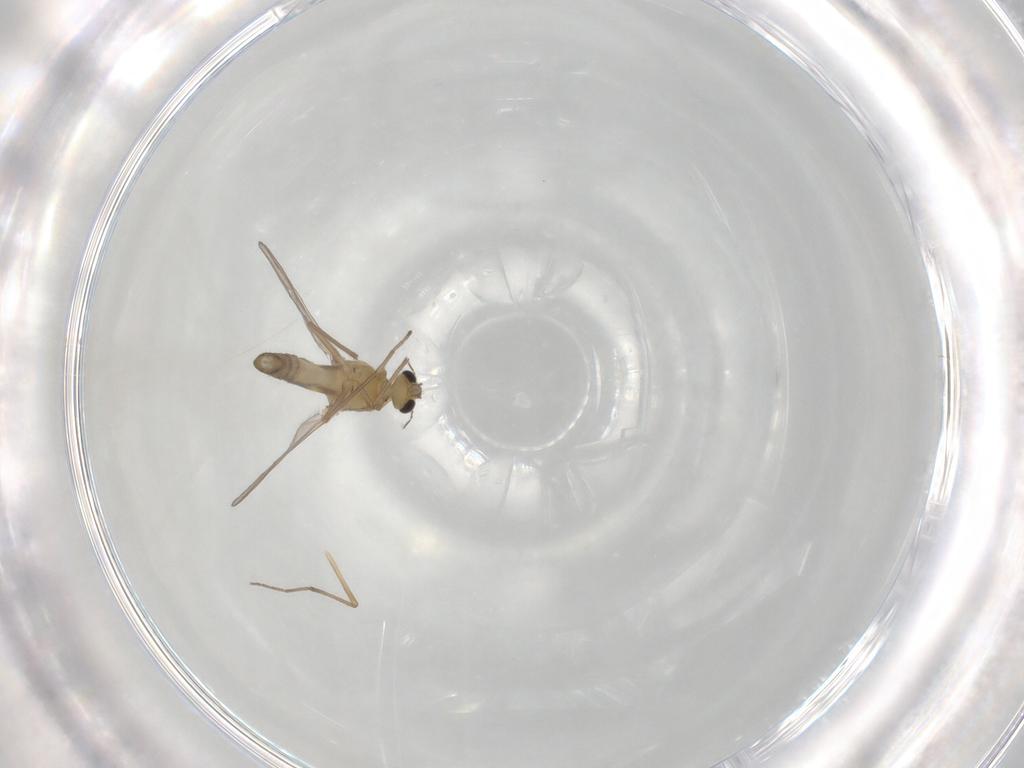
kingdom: Animalia
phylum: Arthropoda
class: Insecta
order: Diptera
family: Chironomidae
